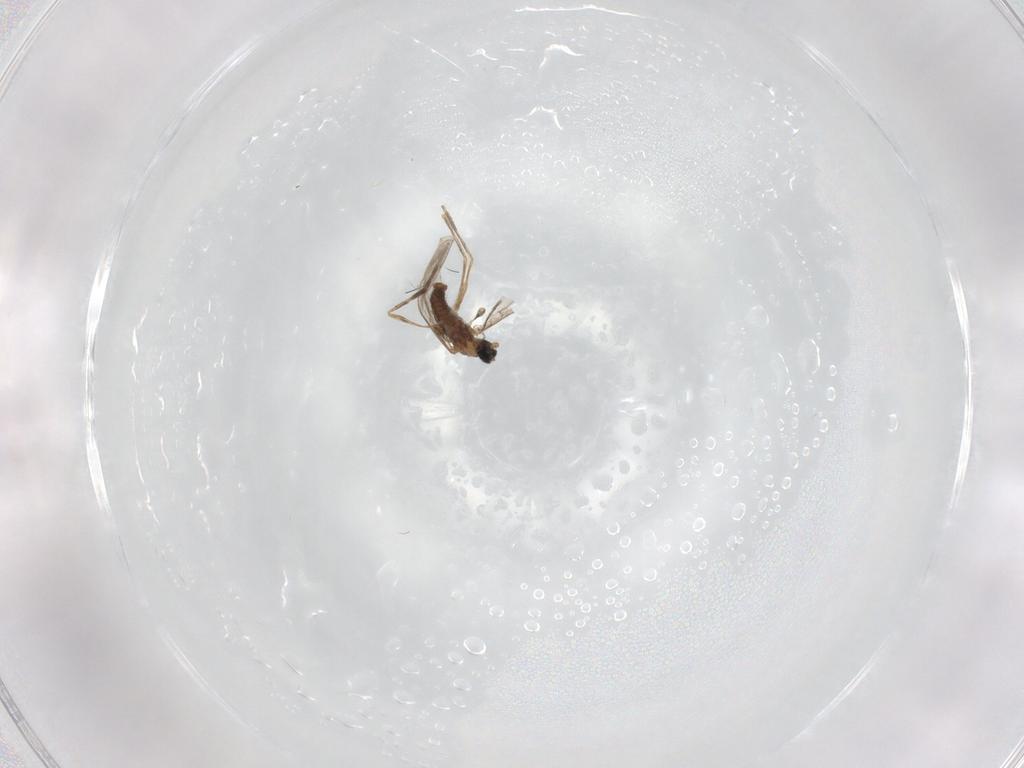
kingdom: Animalia
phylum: Arthropoda
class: Insecta
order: Diptera
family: Cecidomyiidae
